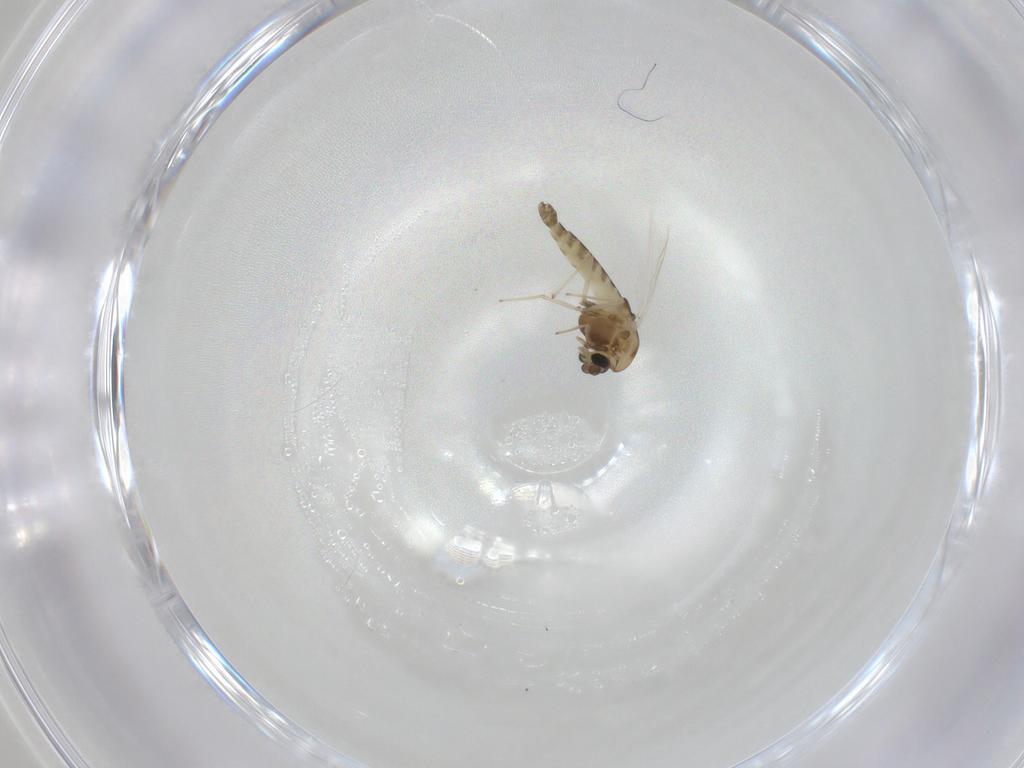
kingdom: Animalia
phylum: Arthropoda
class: Insecta
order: Diptera
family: Chironomidae
